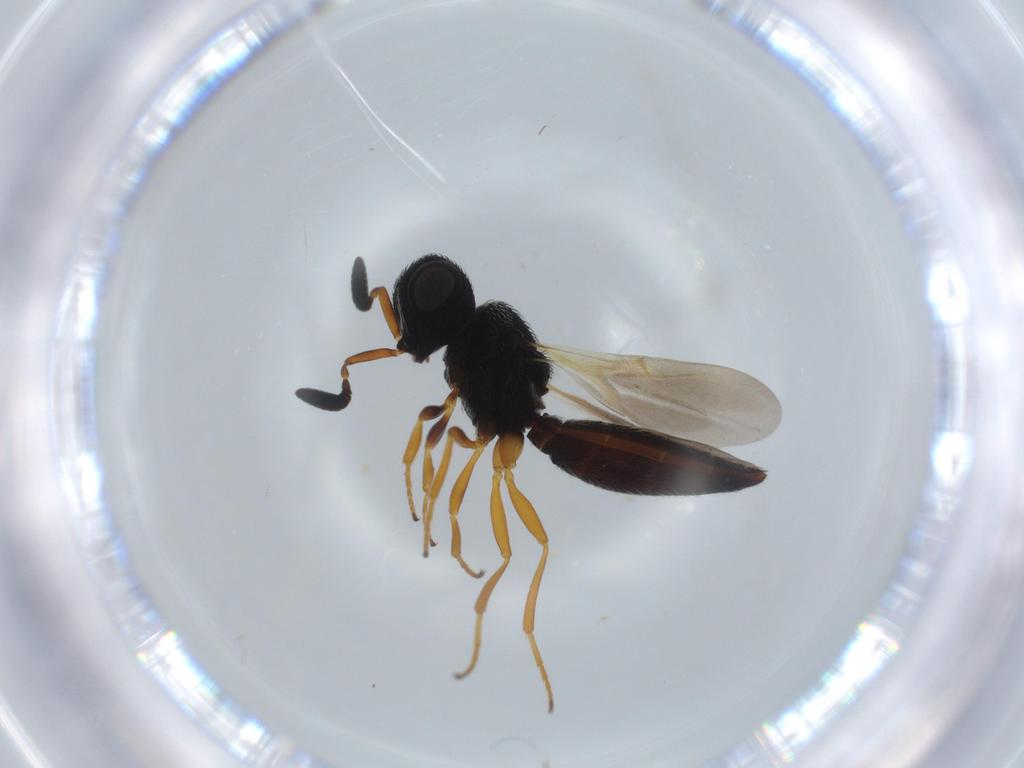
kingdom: Animalia
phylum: Arthropoda
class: Insecta
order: Hymenoptera
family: Scelionidae
